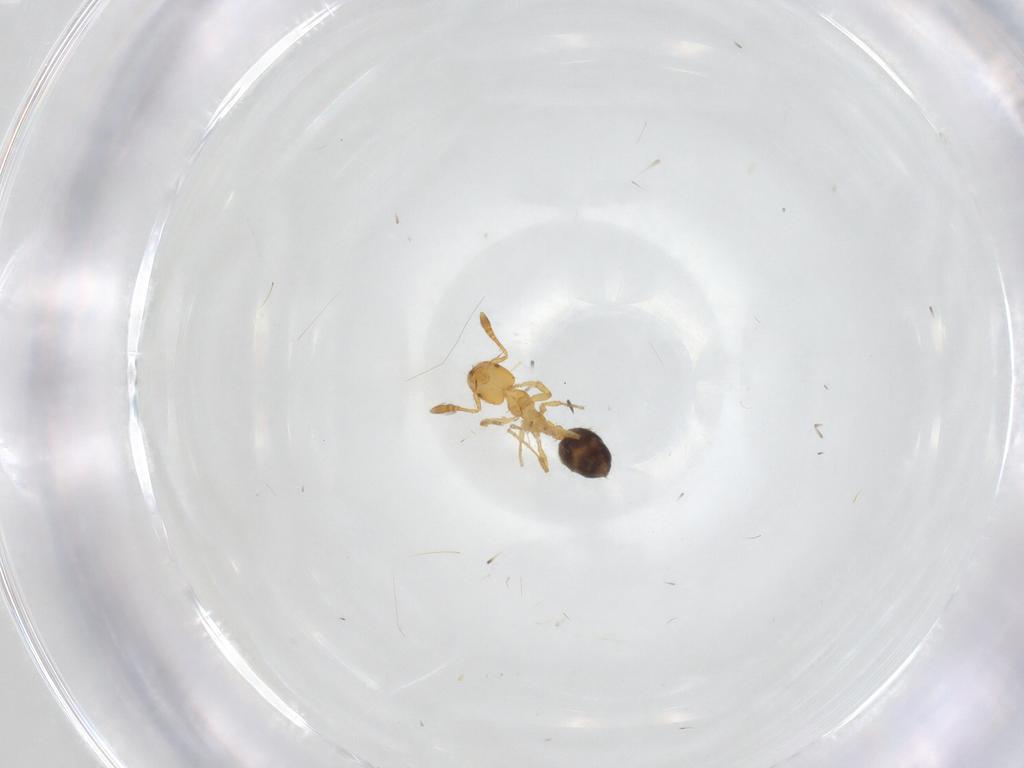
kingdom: Animalia
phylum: Arthropoda
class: Insecta
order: Hymenoptera
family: Formicidae
